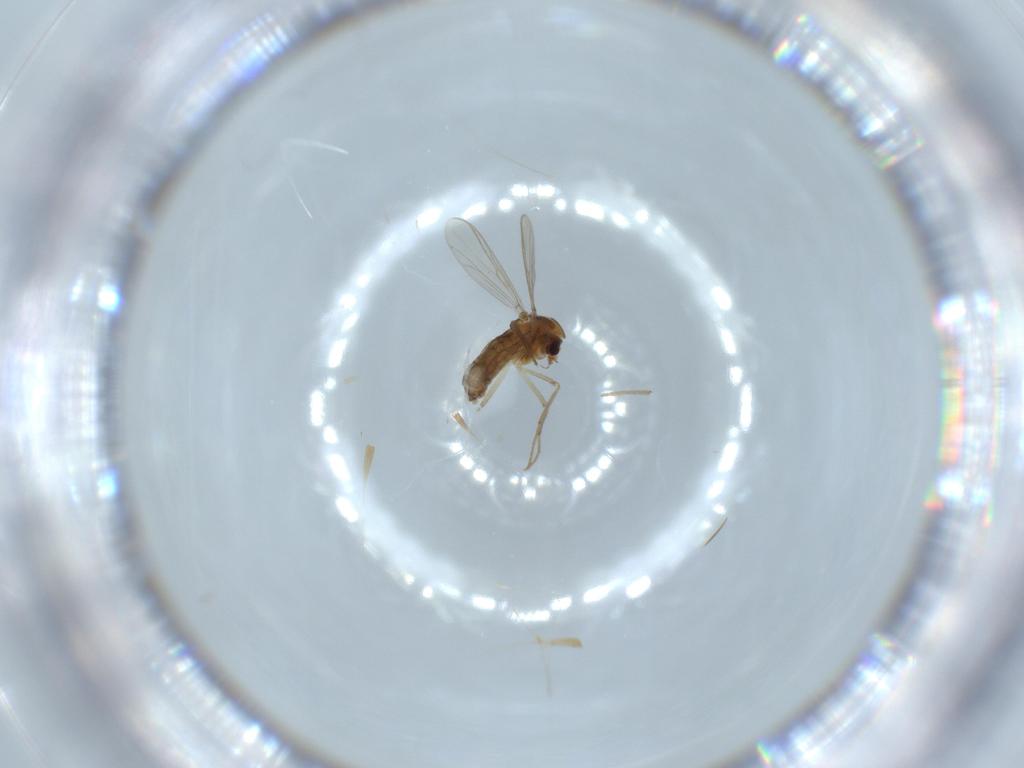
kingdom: Animalia
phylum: Arthropoda
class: Insecta
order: Diptera
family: Chironomidae
